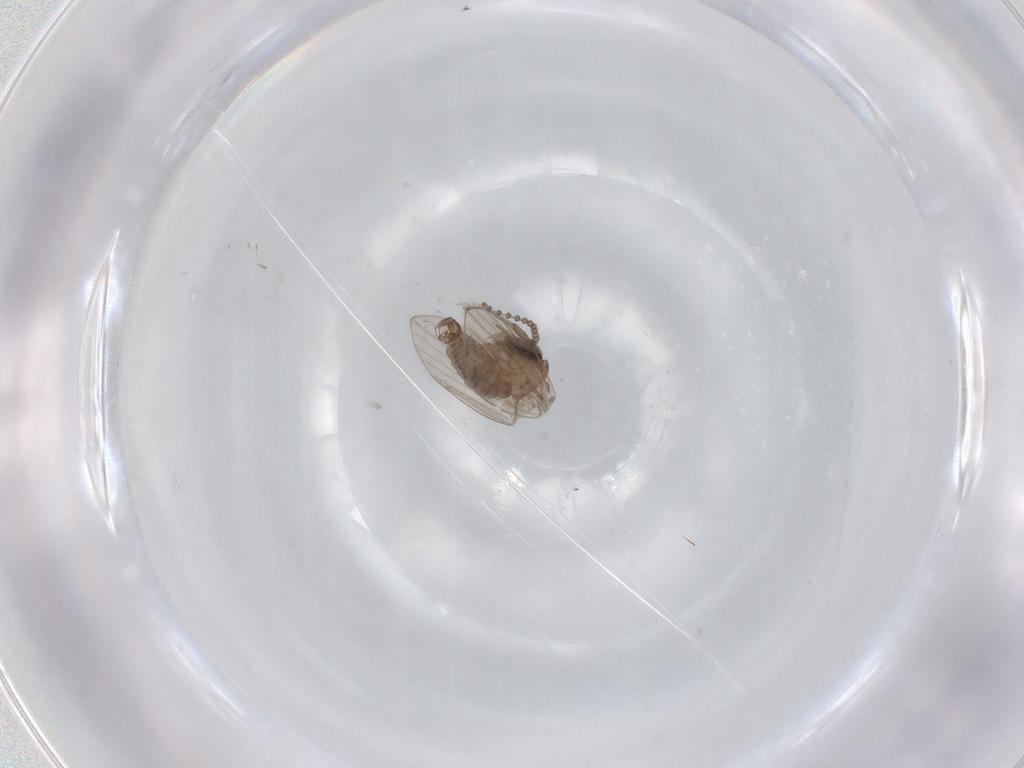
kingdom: Animalia
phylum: Arthropoda
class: Insecta
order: Diptera
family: Psychodidae
